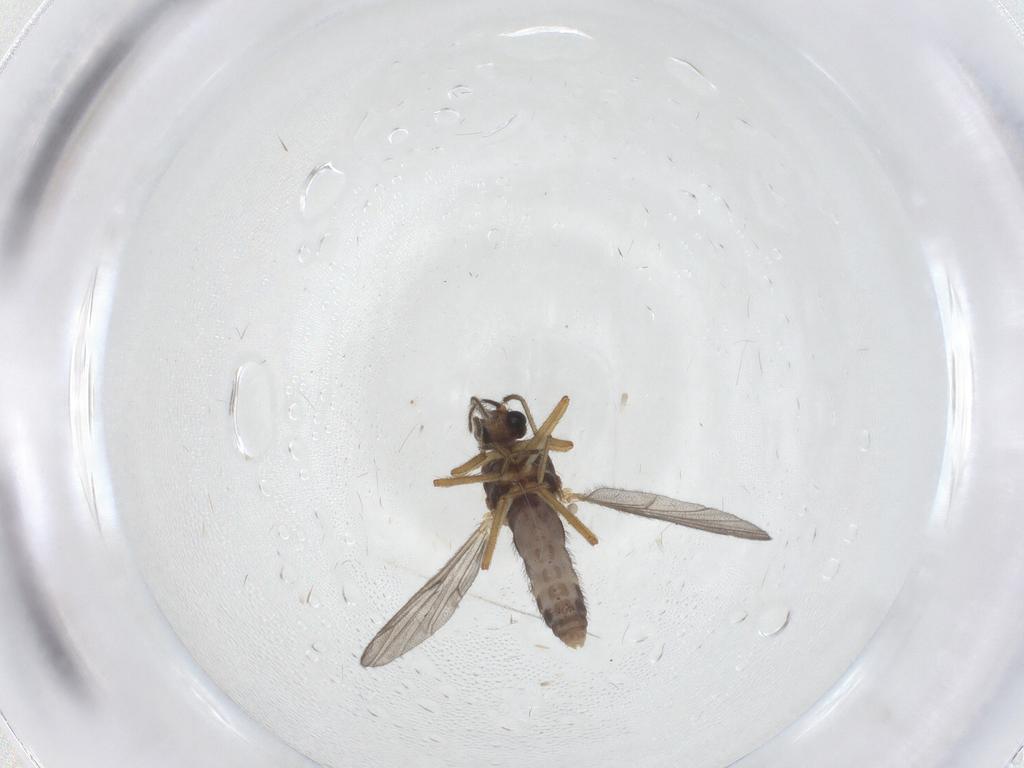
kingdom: Animalia
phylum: Arthropoda
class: Insecta
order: Diptera
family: Ceratopogonidae
